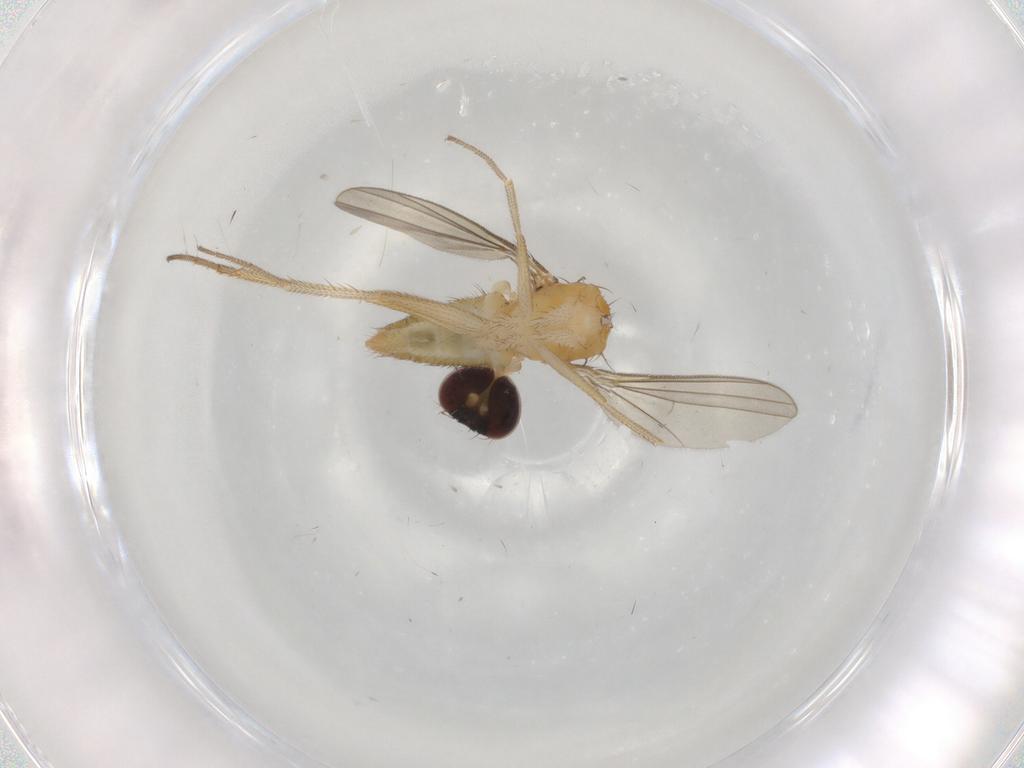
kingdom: Animalia
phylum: Arthropoda
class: Insecta
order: Diptera
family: Dolichopodidae
